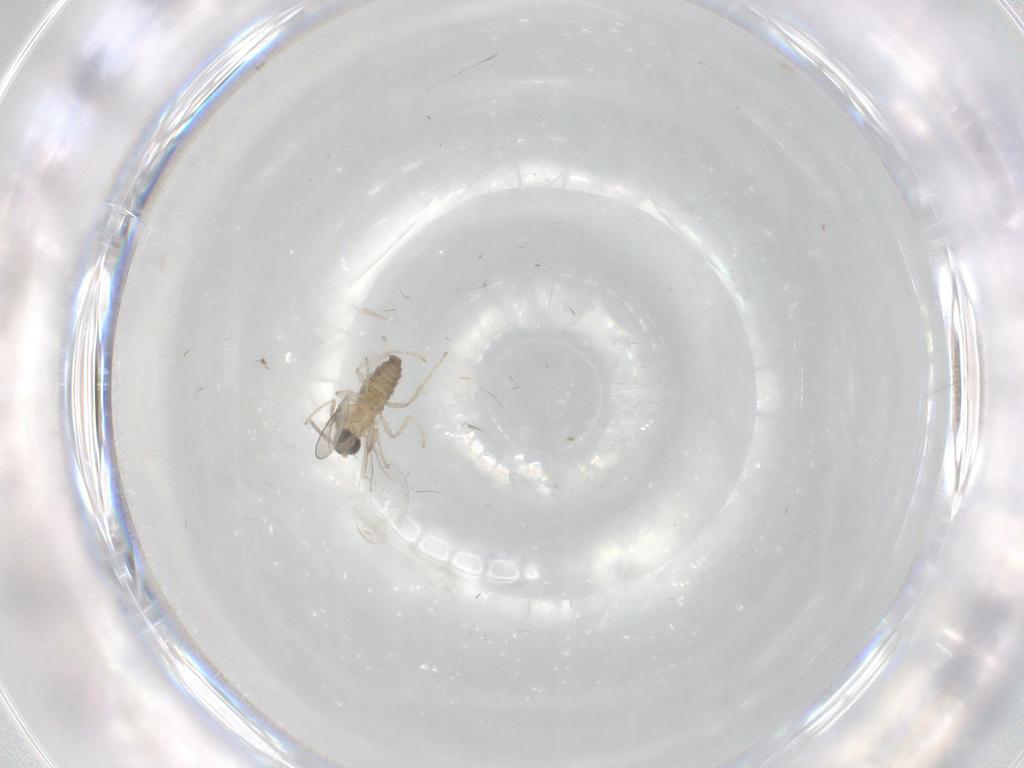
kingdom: Animalia
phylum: Arthropoda
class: Insecta
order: Diptera
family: Cecidomyiidae
